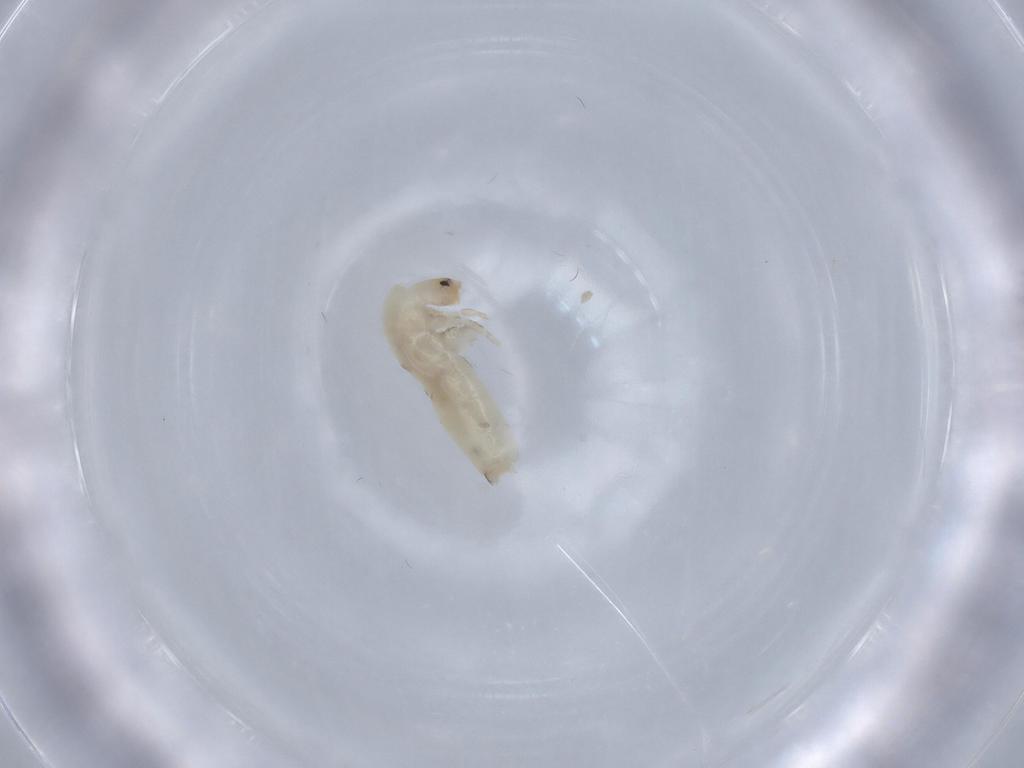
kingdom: Animalia
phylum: Arthropoda
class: Collembola
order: Entomobryomorpha
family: Entomobryidae
